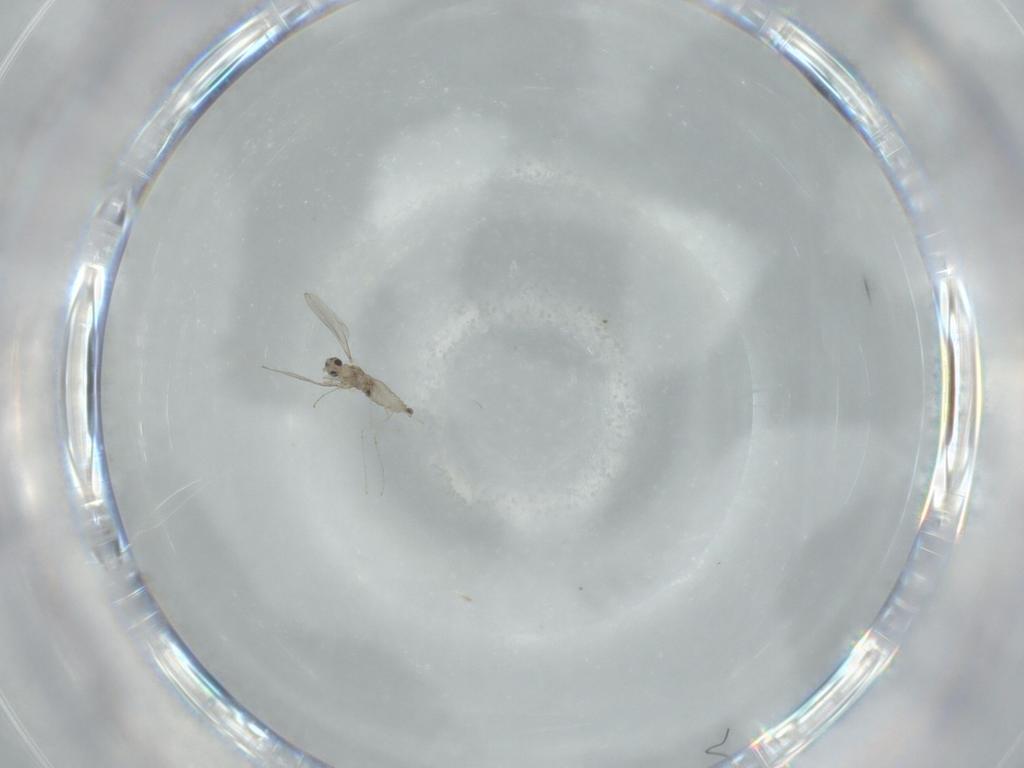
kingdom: Animalia
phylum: Arthropoda
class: Insecta
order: Diptera
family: Cecidomyiidae
